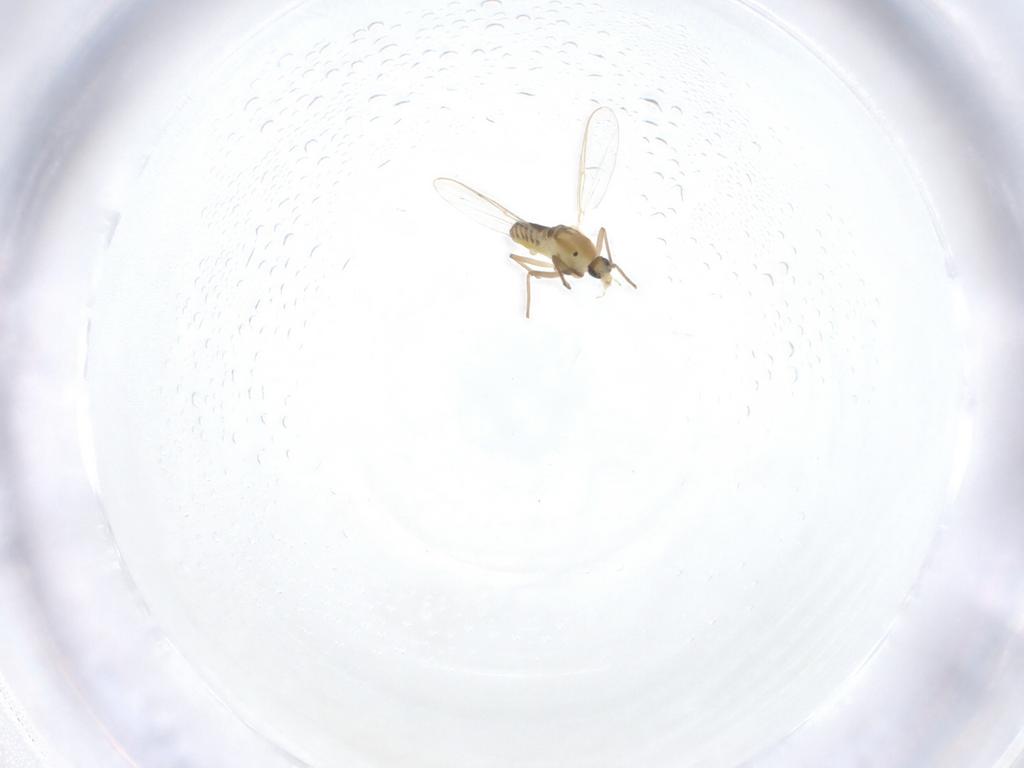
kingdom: Animalia
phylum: Arthropoda
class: Insecta
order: Diptera
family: Chironomidae
